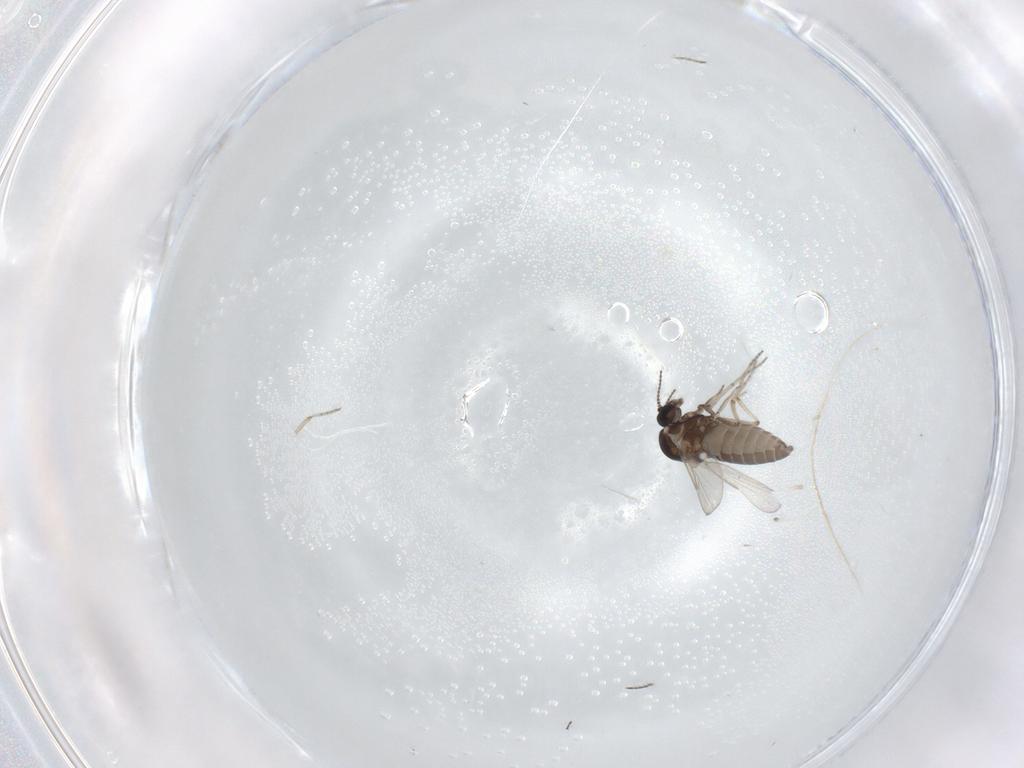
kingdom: Animalia
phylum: Arthropoda
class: Insecta
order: Diptera
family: Ceratopogonidae
